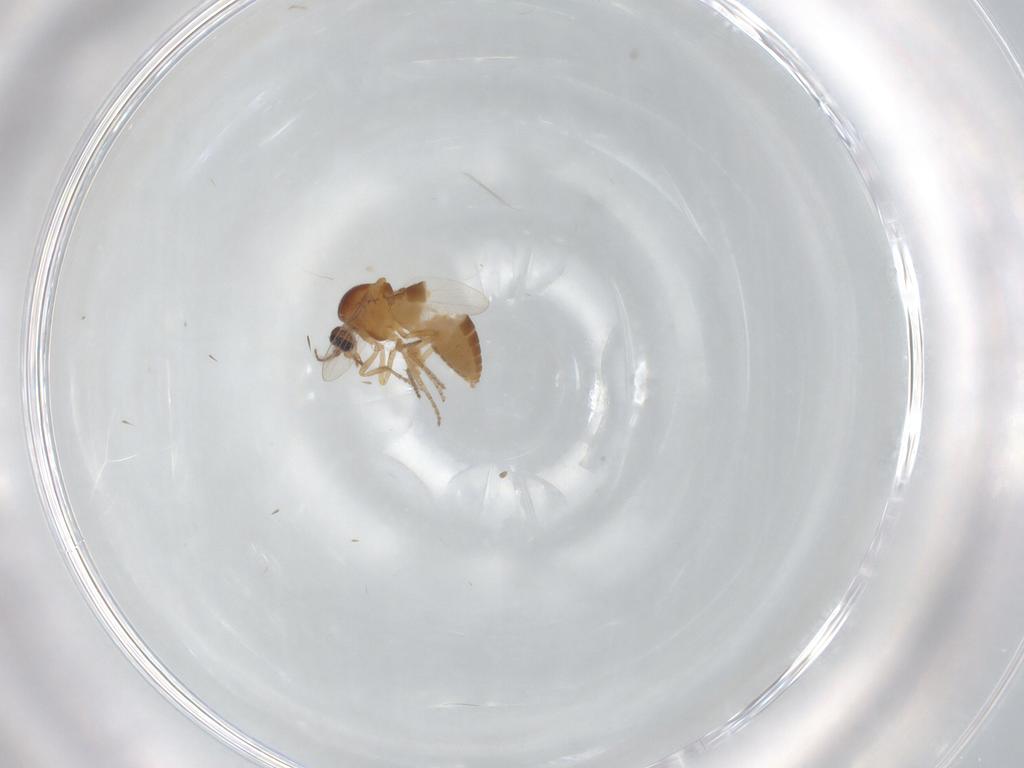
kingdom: Animalia
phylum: Arthropoda
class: Insecta
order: Diptera
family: Ceratopogonidae
